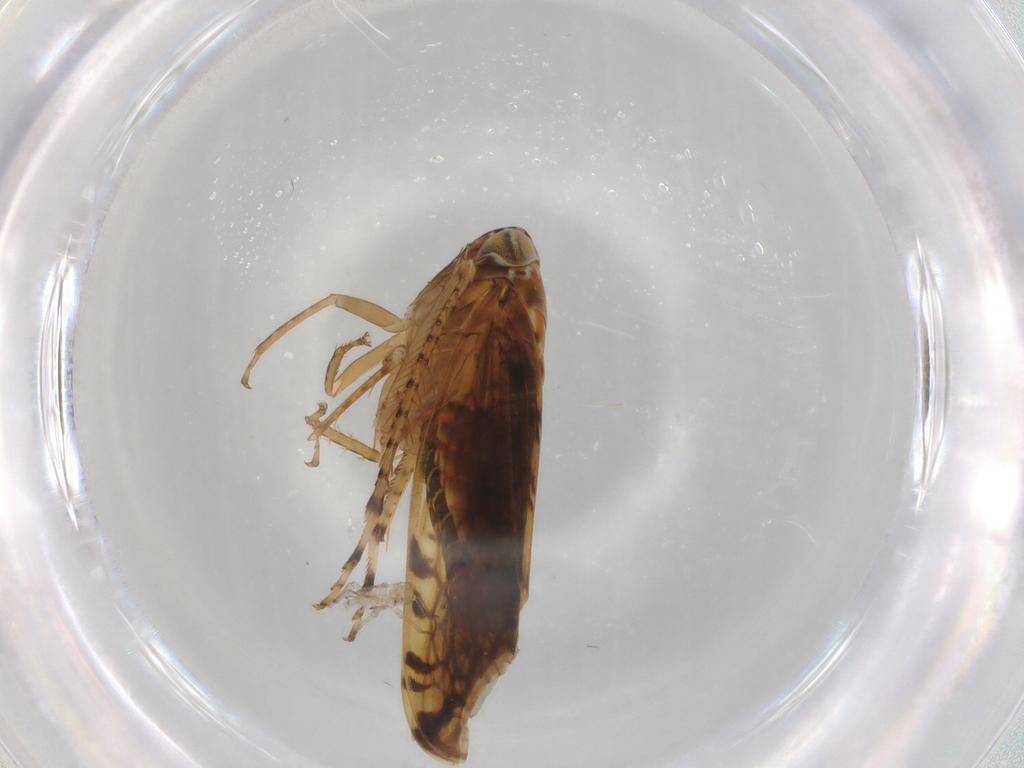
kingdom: Animalia
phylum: Arthropoda
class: Insecta
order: Hemiptera
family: Cicadellidae
